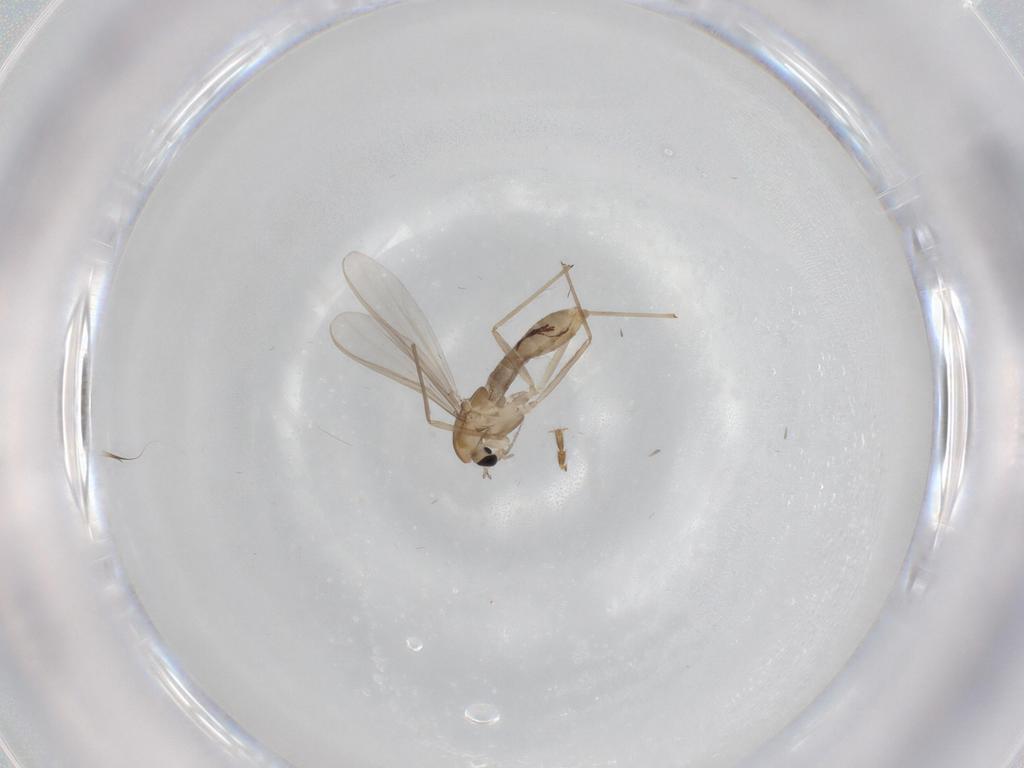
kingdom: Animalia
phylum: Arthropoda
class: Insecta
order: Diptera
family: Chironomidae
